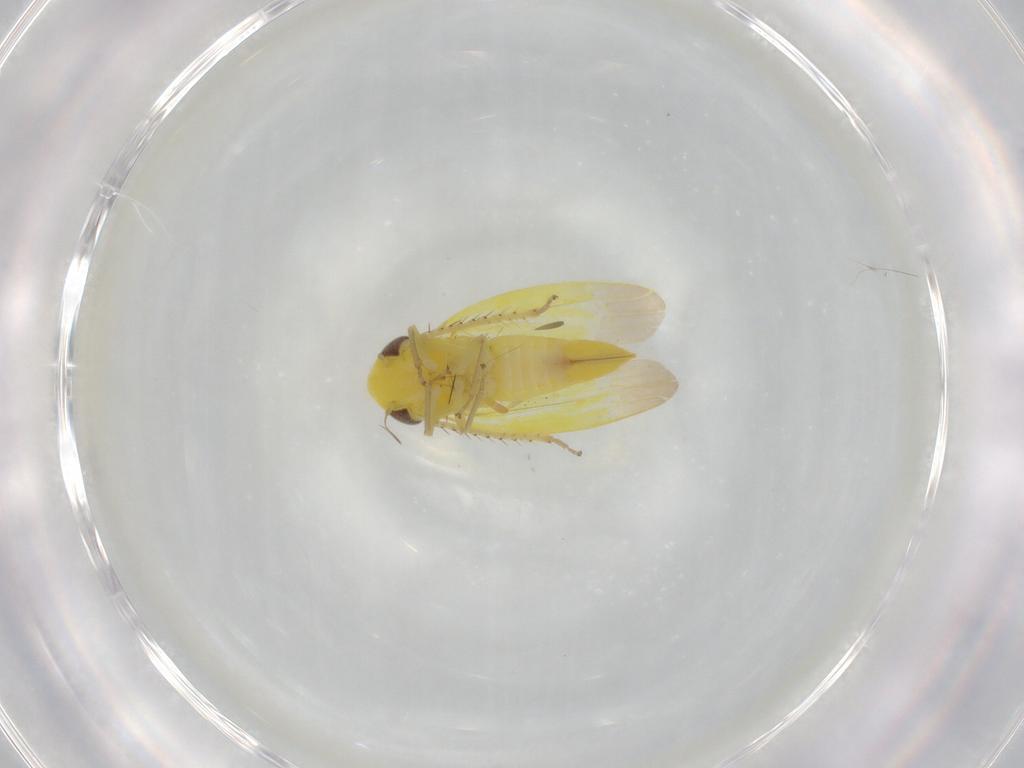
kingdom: Animalia
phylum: Arthropoda
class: Insecta
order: Hemiptera
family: Cicadellidae
